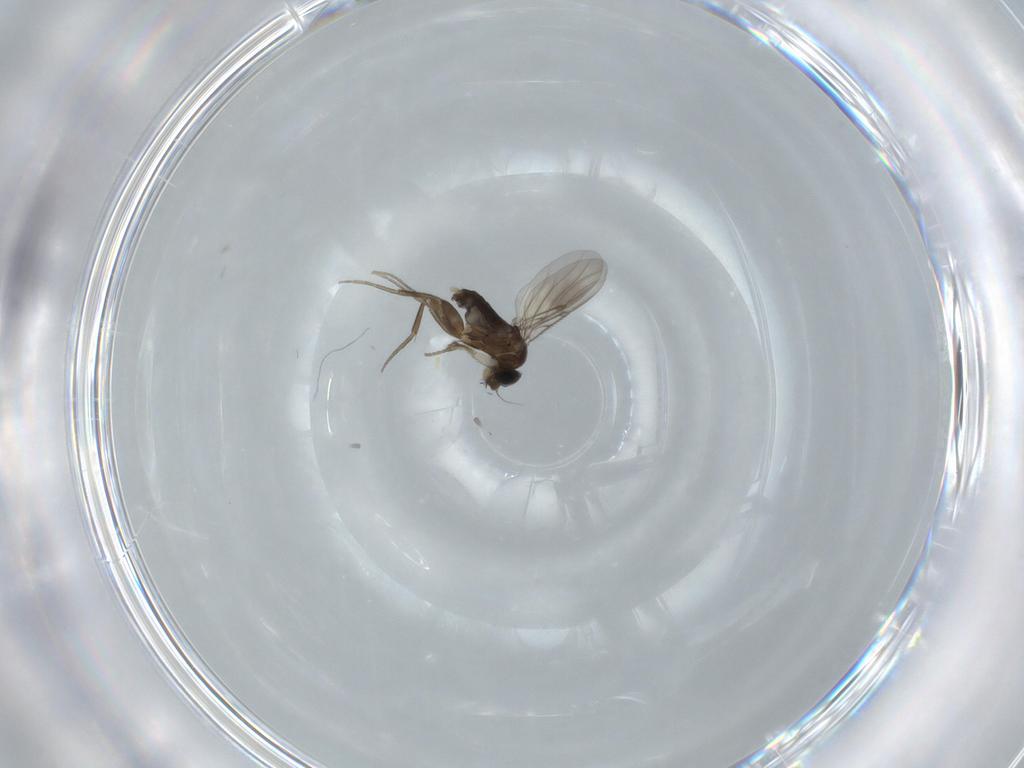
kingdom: Animalia
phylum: Arthropoda
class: Insecta
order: Diptera
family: Phoridae
